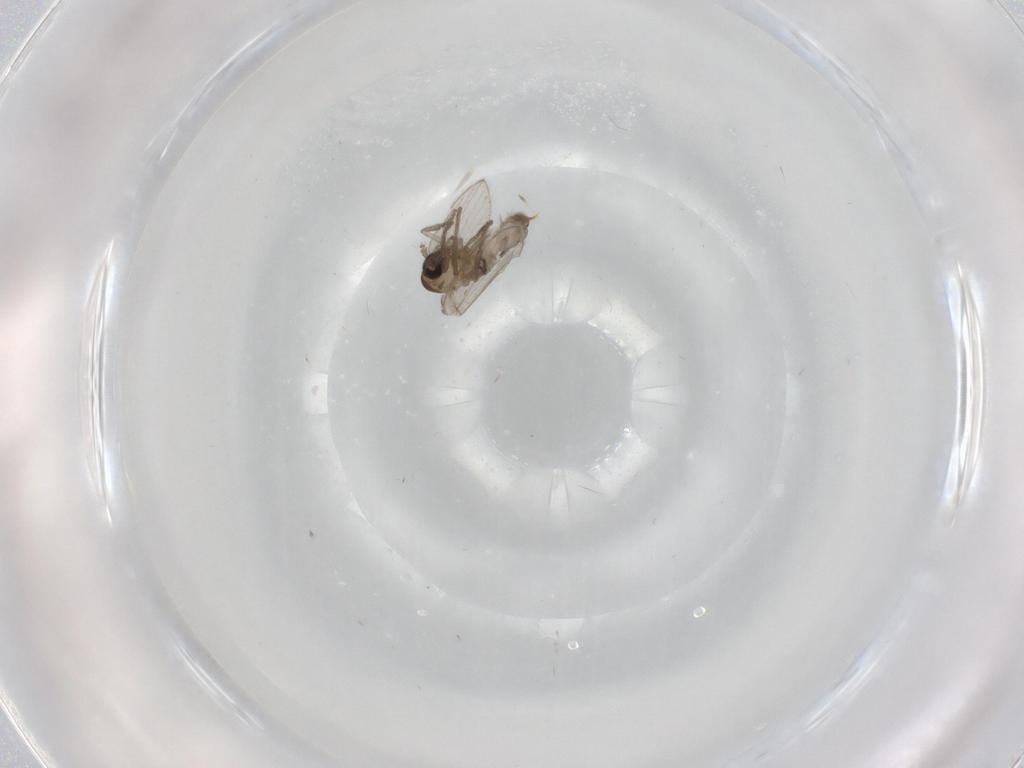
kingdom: Animalia
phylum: Arthropoda
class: Insecta
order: Diptera
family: Psychodidae
